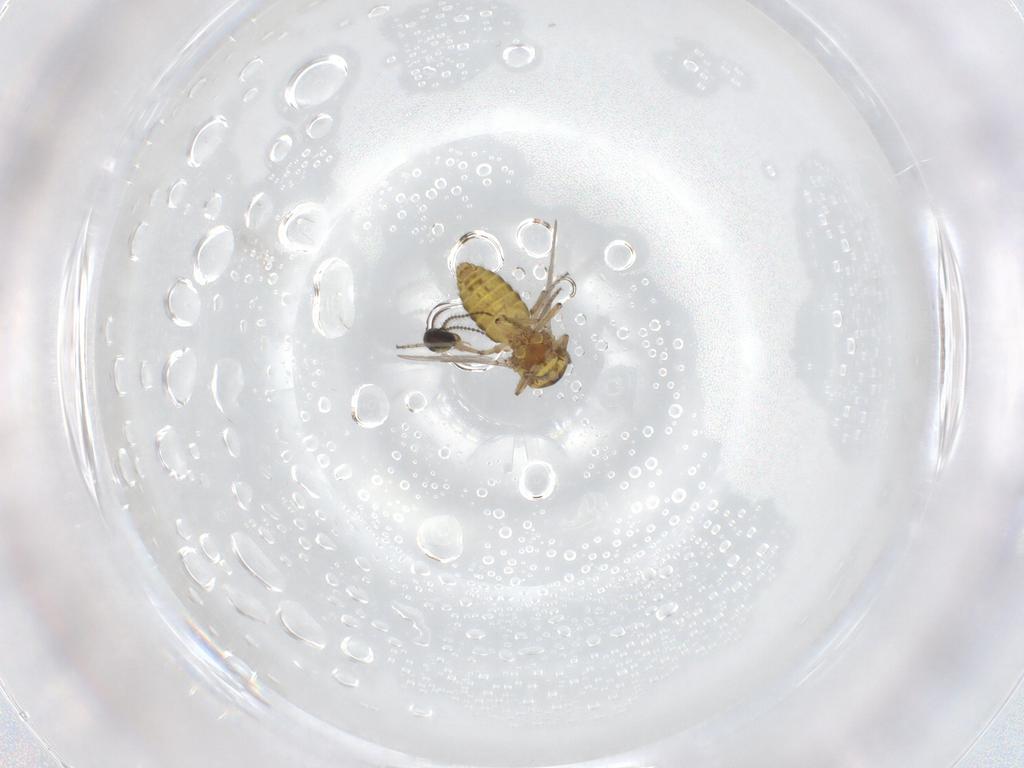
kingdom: Animalia
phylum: Arthropoda
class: Insecta
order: Diptera
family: Ceratopogonidae
